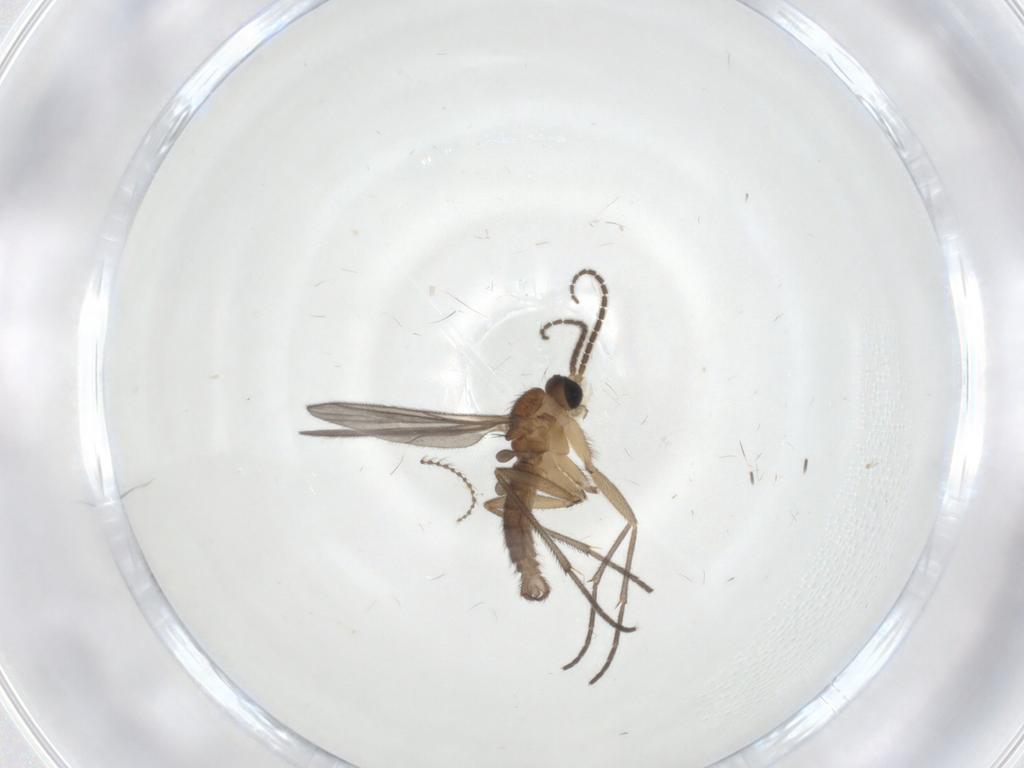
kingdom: Animalia
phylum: Arthropoda
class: Insecta
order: Diptera
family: Sciaridae
